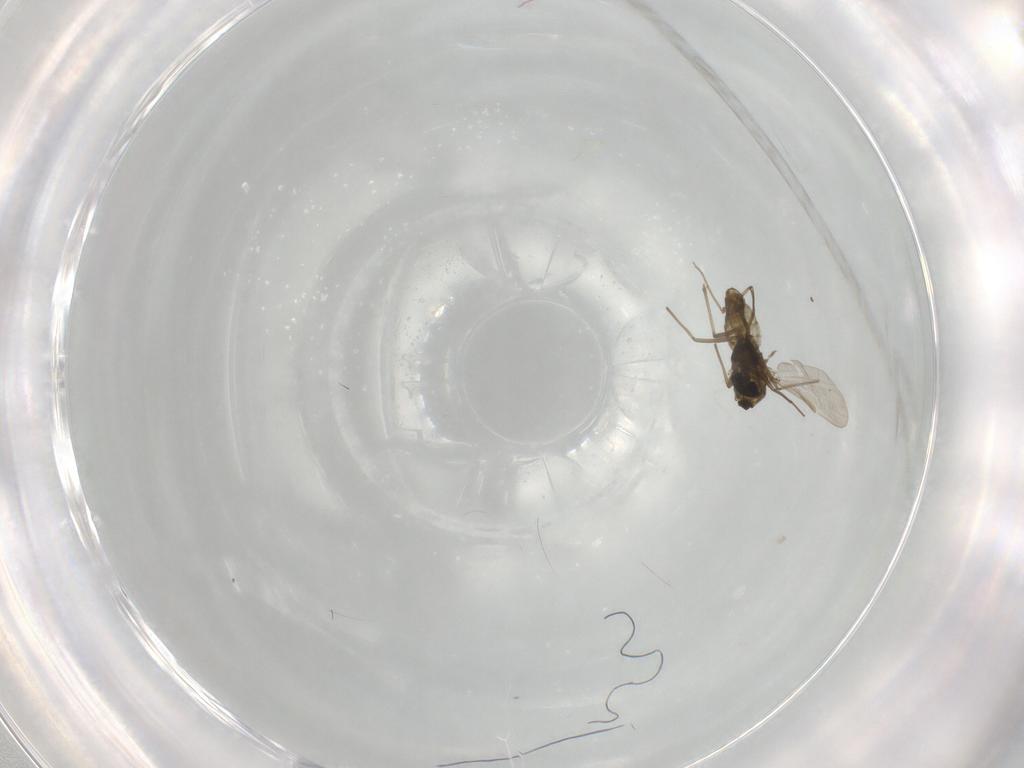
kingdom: Animalia
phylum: Arthropoda
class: Insecta
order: Diptera
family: Chironomidae
